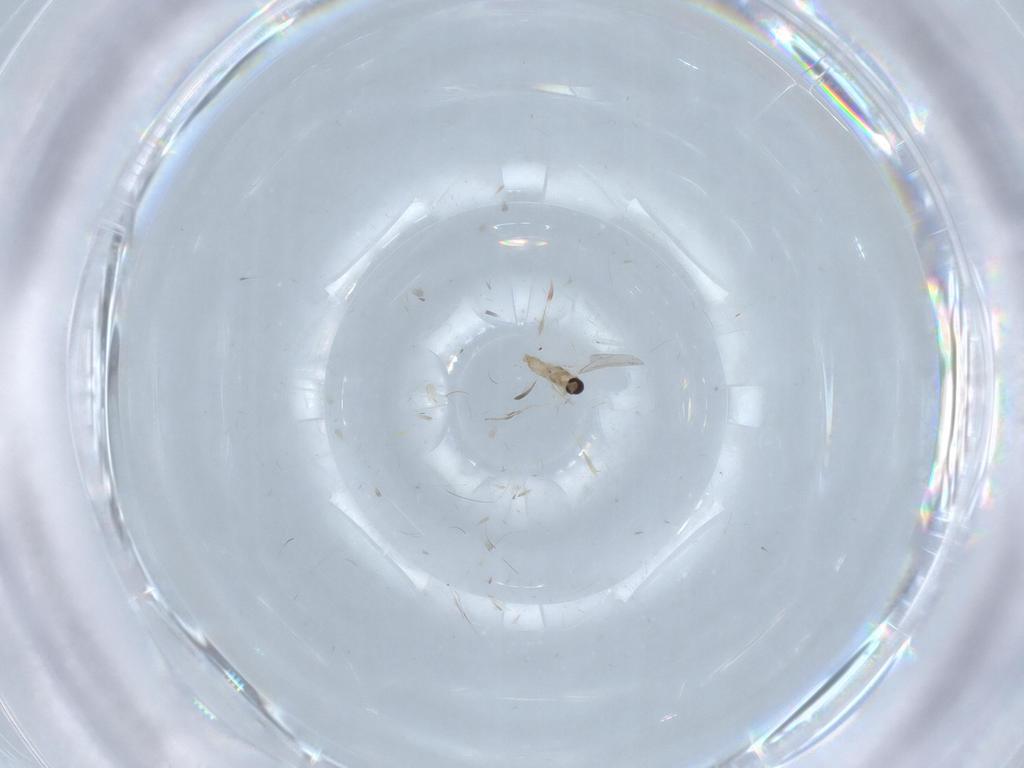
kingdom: Animalia
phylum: Arthropoda
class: Insecta
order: Diptera
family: Cecidomyiidae
